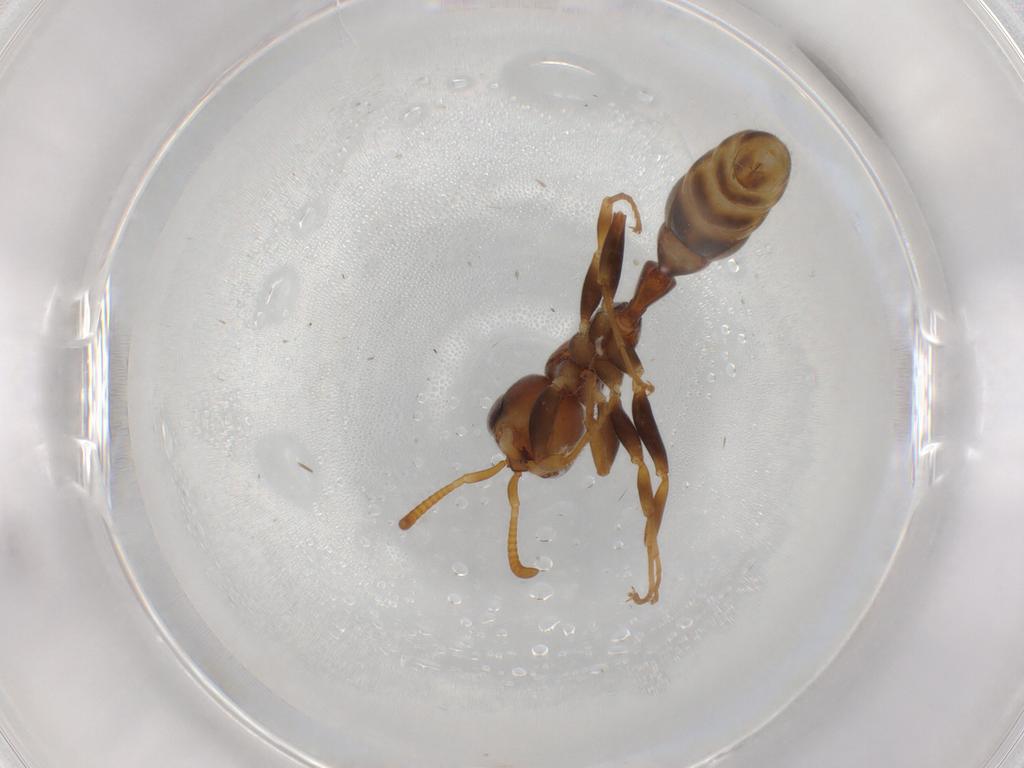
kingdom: Animalia
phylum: Arthropoda
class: Insecta
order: Hymenoptera
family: Formicidae
